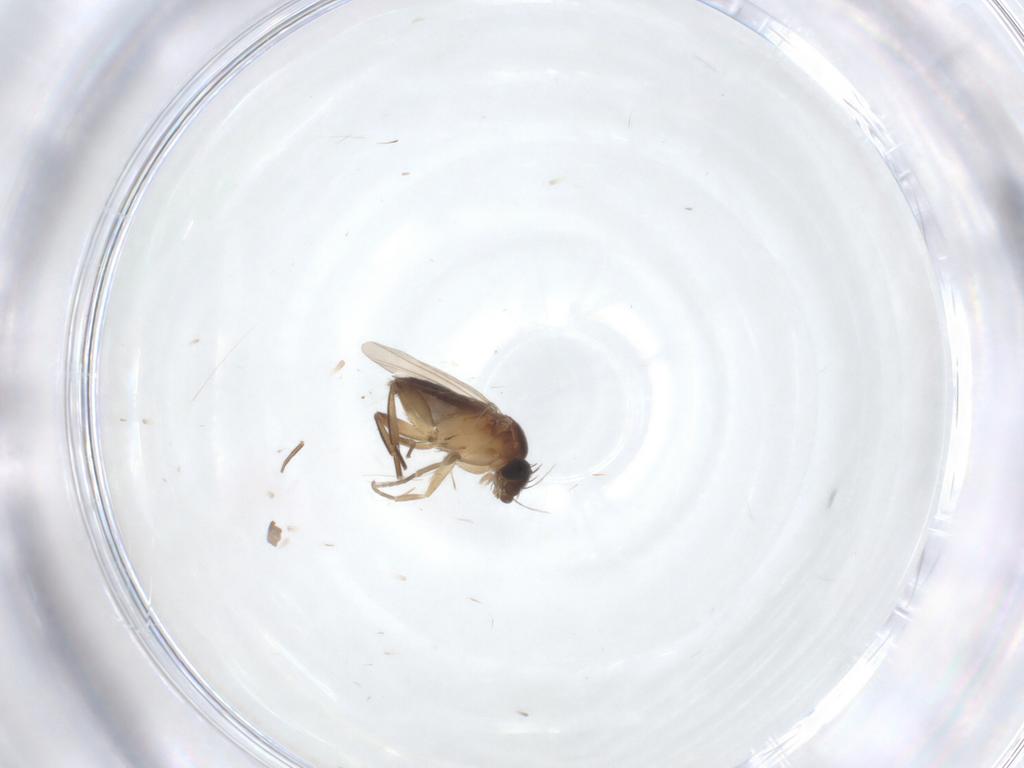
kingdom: Animalia
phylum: Arthropoda
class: Insecta
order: Diptera
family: Phoridae
